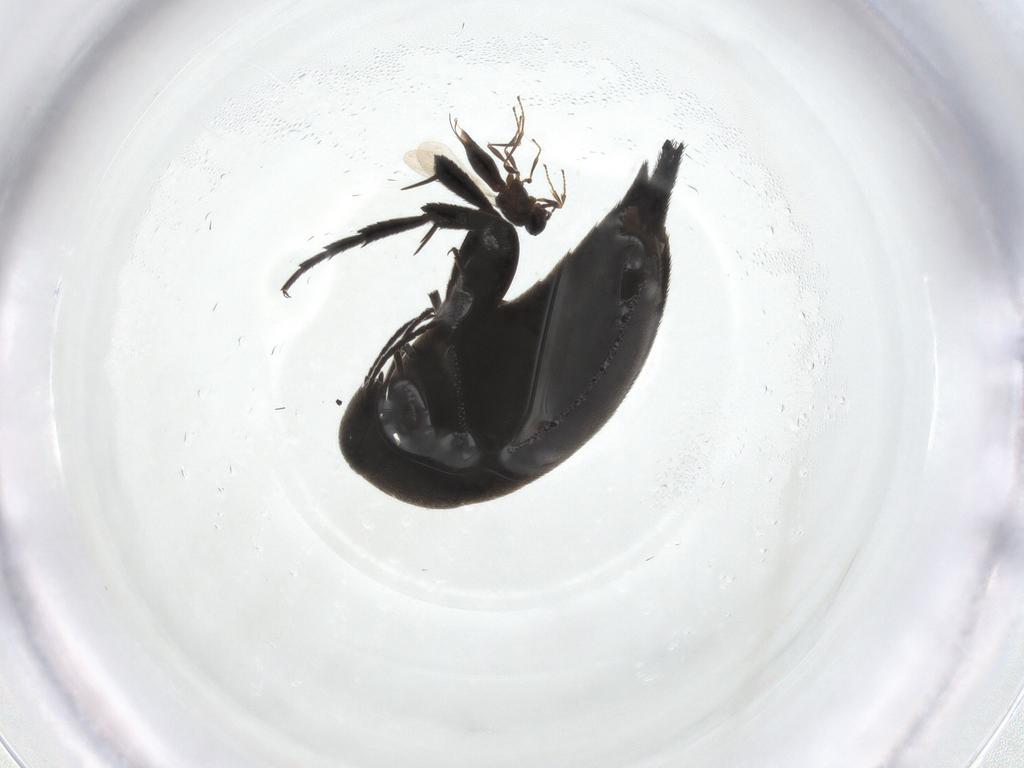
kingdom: Animalia
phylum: Arthropoda
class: Insecta
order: Coleoptera
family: Mordellidae
